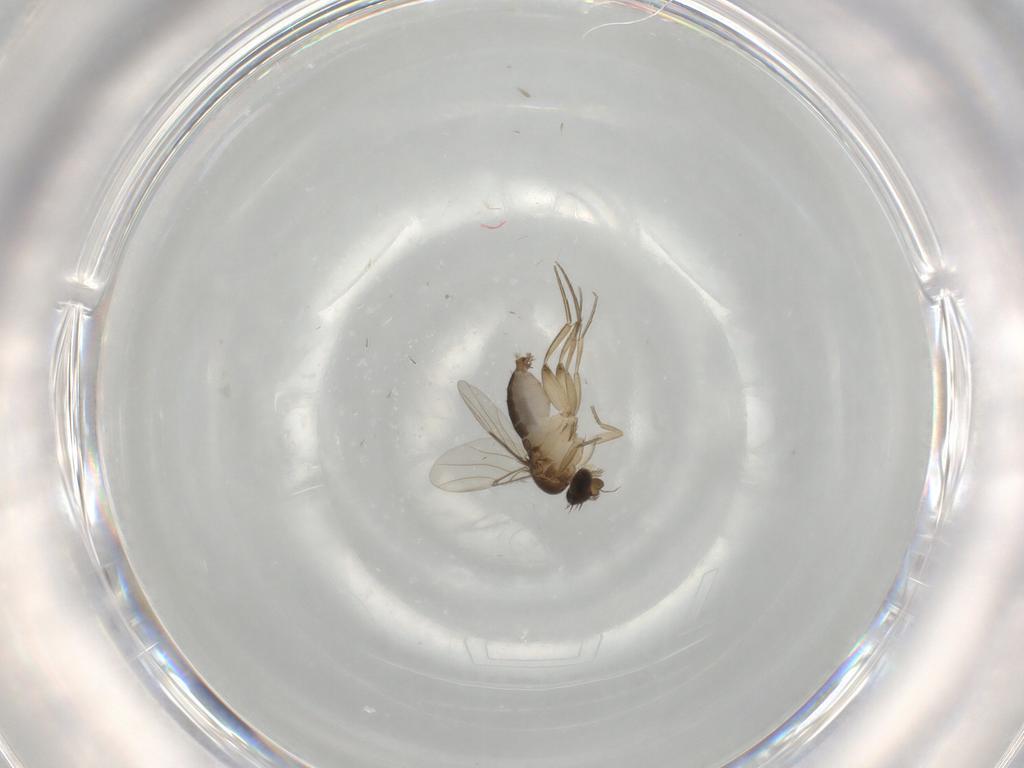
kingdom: Animalia
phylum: Arthropoda
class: Insecta
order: Diptera
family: Phoridae
